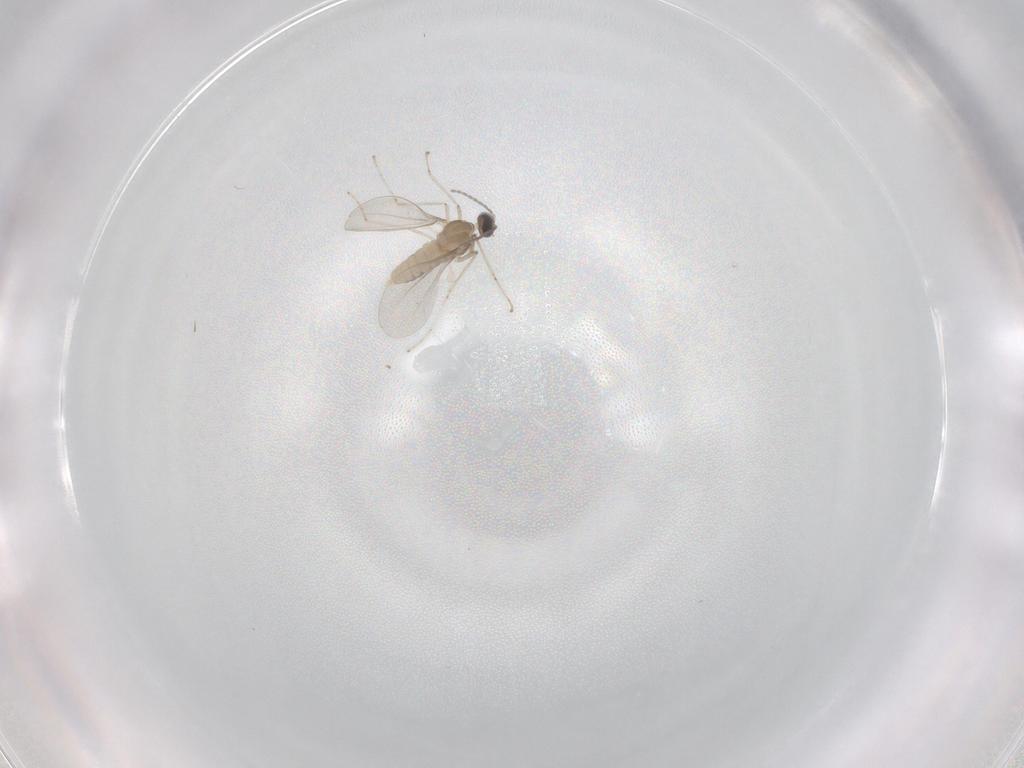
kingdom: Animalia
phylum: Arthropoda
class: Insecta
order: Diptera
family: Cecidomyiidae
